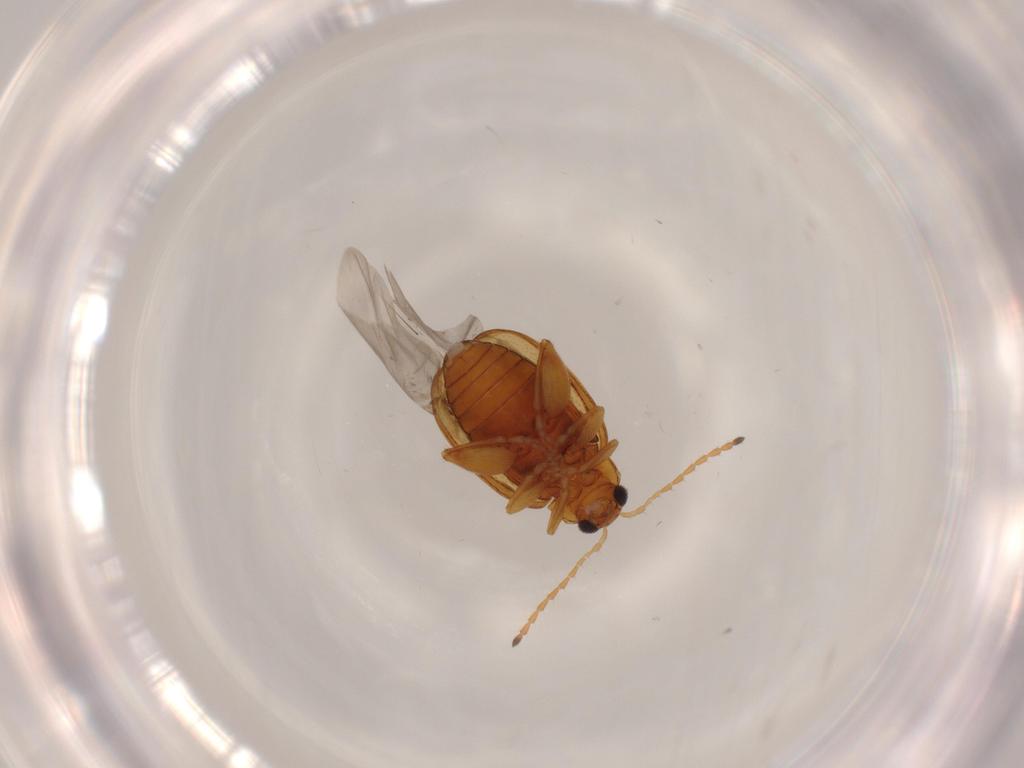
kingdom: Animalia
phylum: Arthropoda
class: Insecta
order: Coleoptera
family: Chrysomelidae
